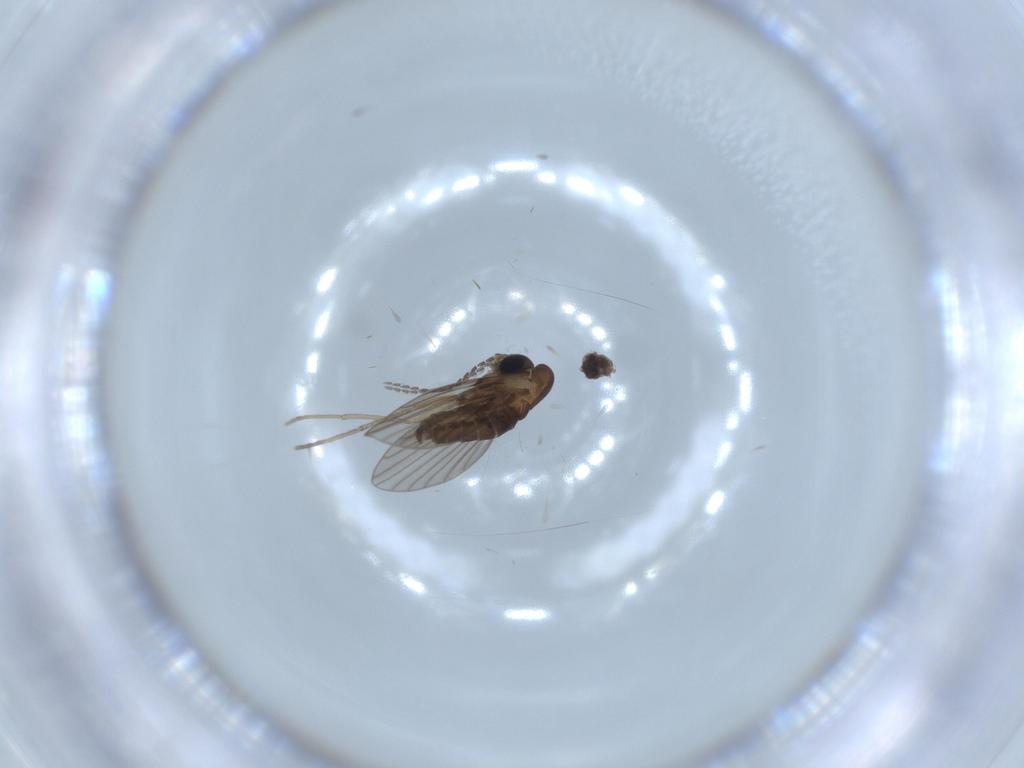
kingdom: Animalia
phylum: Arthropoda
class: Insecta
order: Diptera
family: Psychodidae
